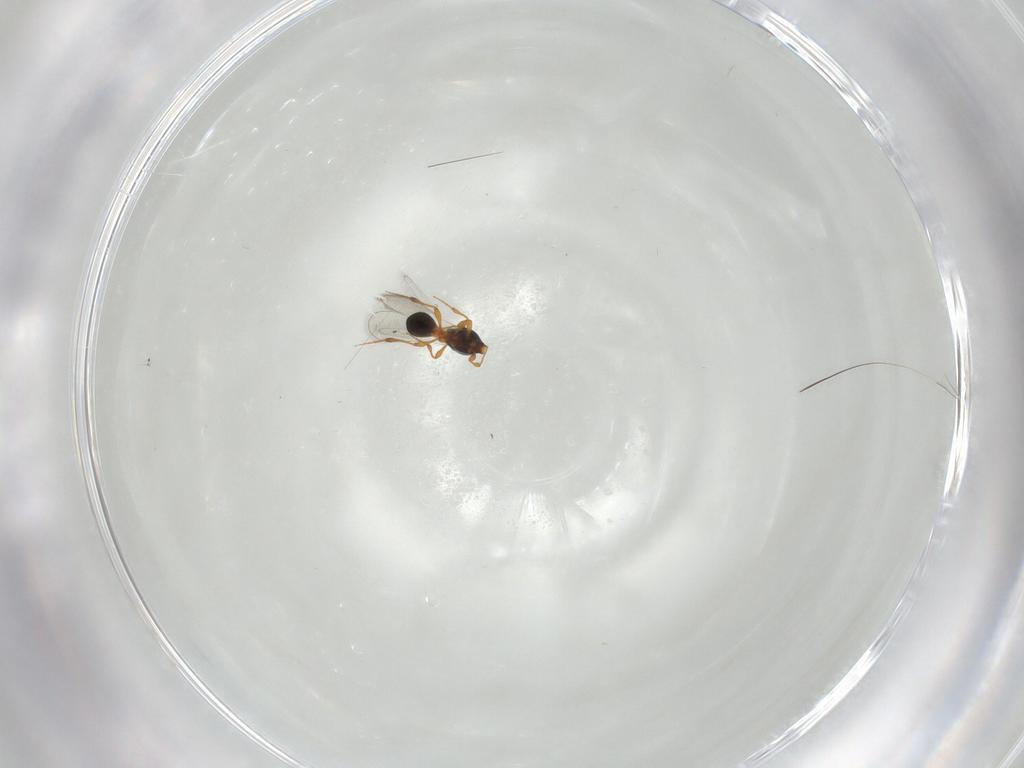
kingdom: Animalia
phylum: Arthropoda
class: Insecta
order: Hymenoptera
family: Platygastridae
